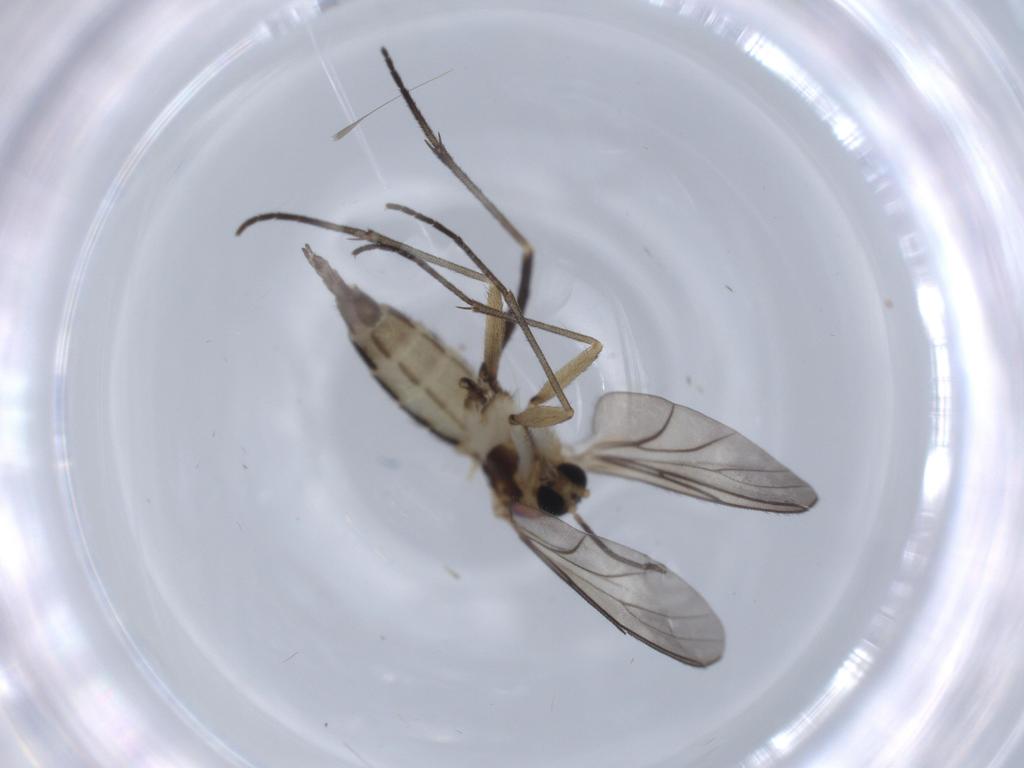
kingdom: Animalia
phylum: Arthropoda
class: Insecta
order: Diptera
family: Sciaridae
